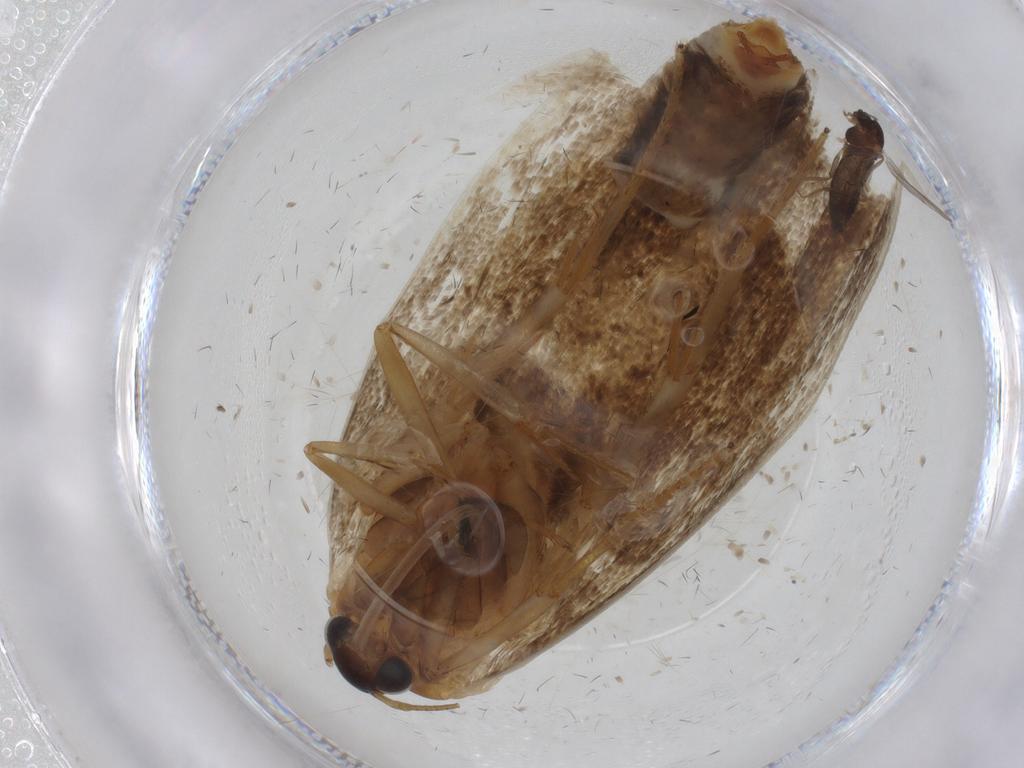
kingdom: Animalia
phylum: Arthropoda
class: Insecta
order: Lepidoptera
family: Oecophoridae
